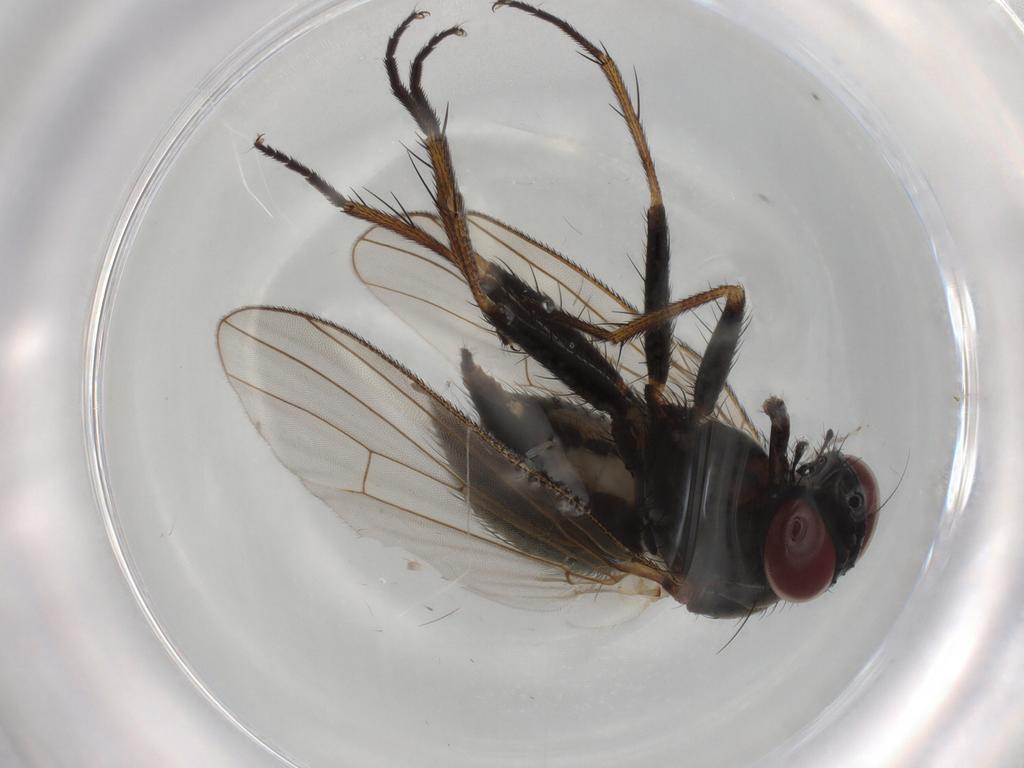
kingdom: Animalia
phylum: Arthropoda
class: Insecta
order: Diptera
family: Muscidae
